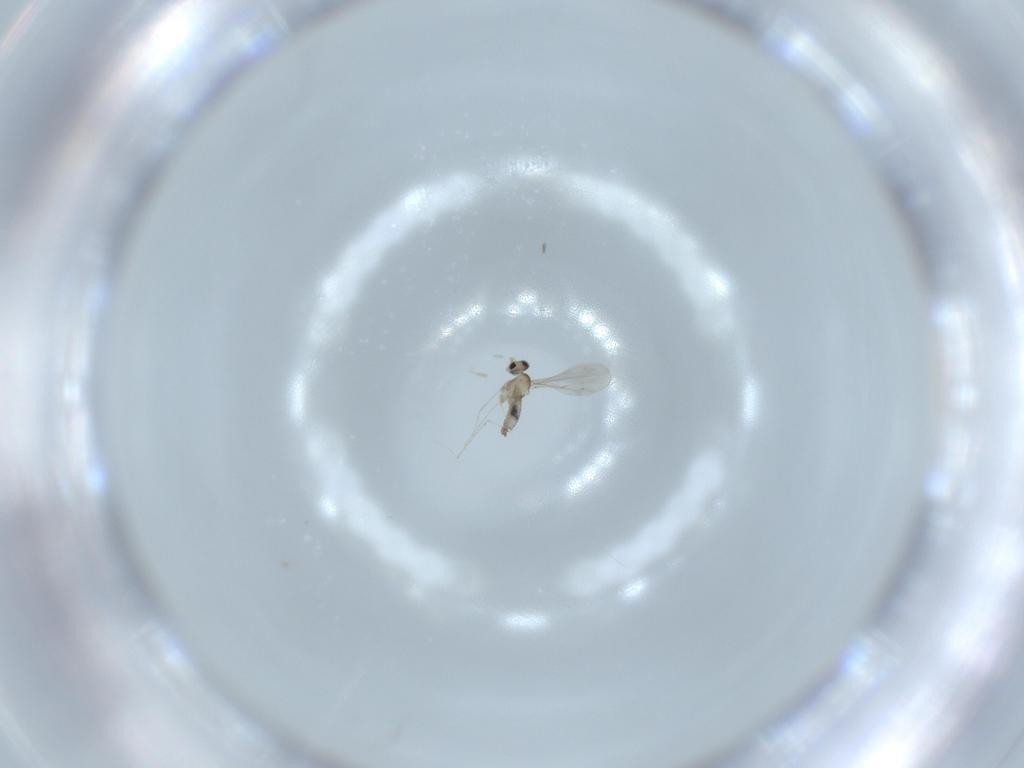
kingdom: Animalia
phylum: Arthropoda
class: Insecta
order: Diptera
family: Cecidomyiidae
